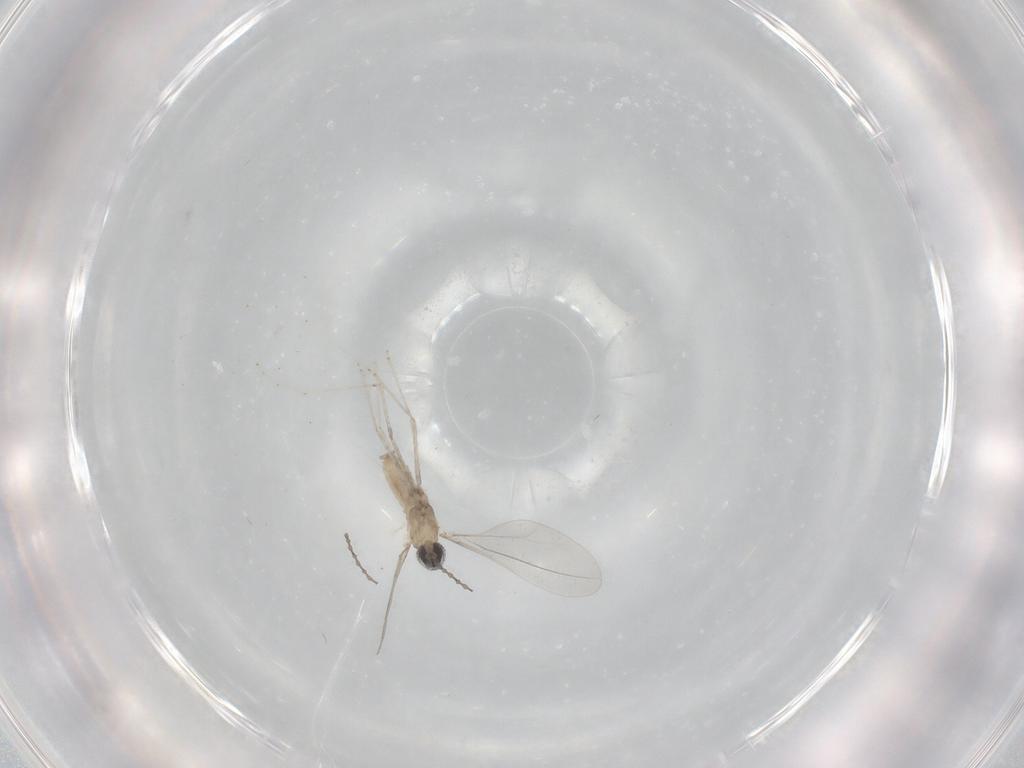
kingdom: Animalia
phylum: Arthropoda
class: Insecta
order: Diptera
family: Cecidomyiidae
